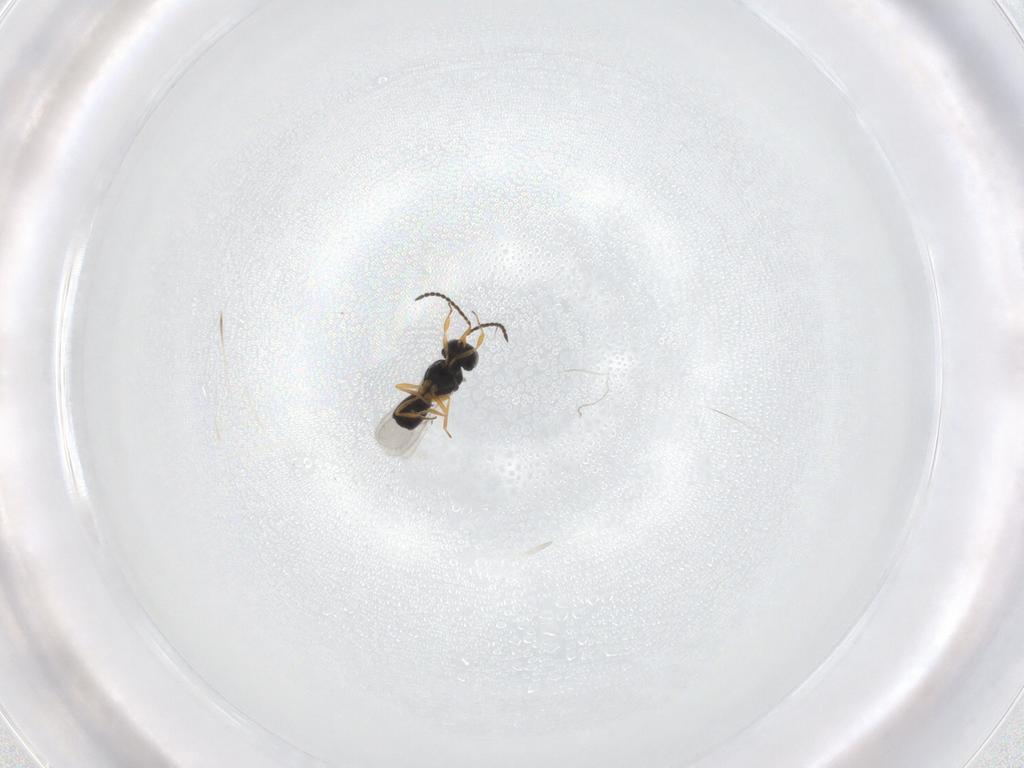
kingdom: Animalia
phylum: Arthropoda
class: Insecta
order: Hymenoptera
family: Scelionidae
